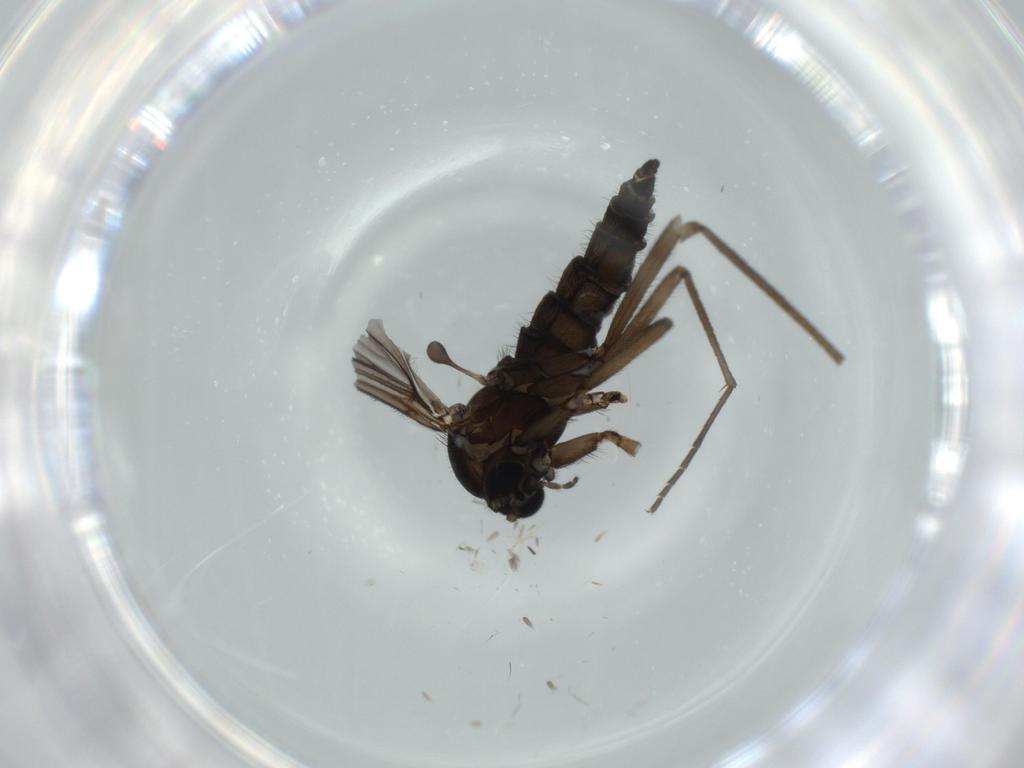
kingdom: Animalia
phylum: Arthropoda
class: Insecta
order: Diptera
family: Sciaridae
